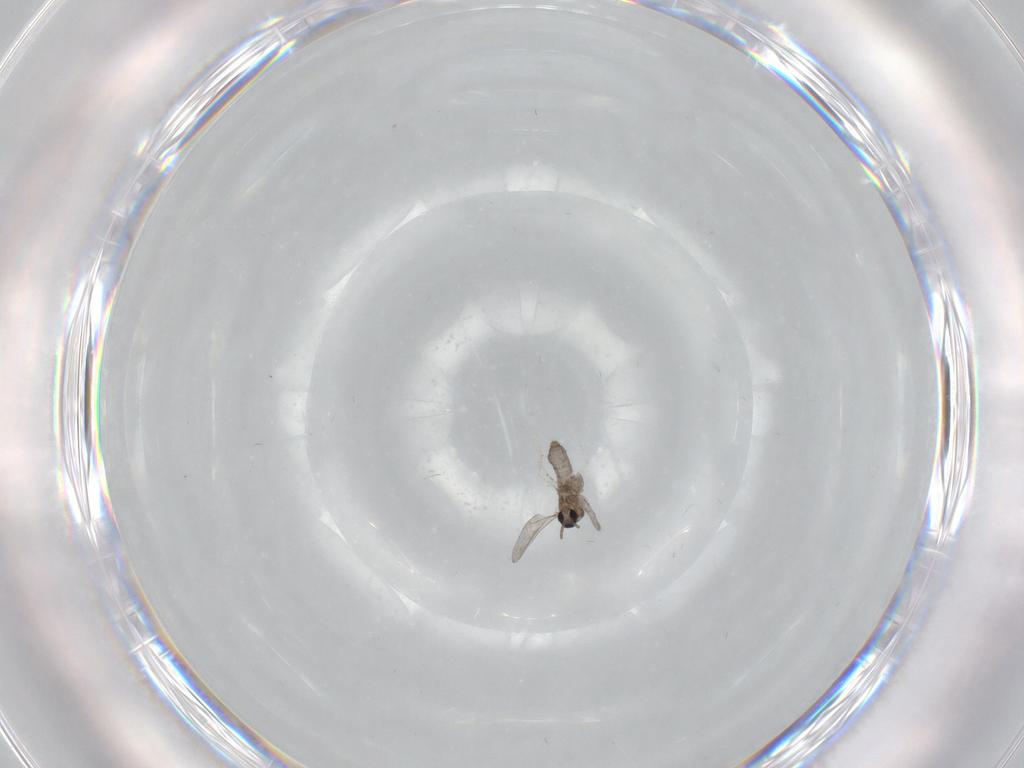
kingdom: Animalia
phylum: Arthropoda
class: Insecta
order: Diptera
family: Cecidomyiidae
